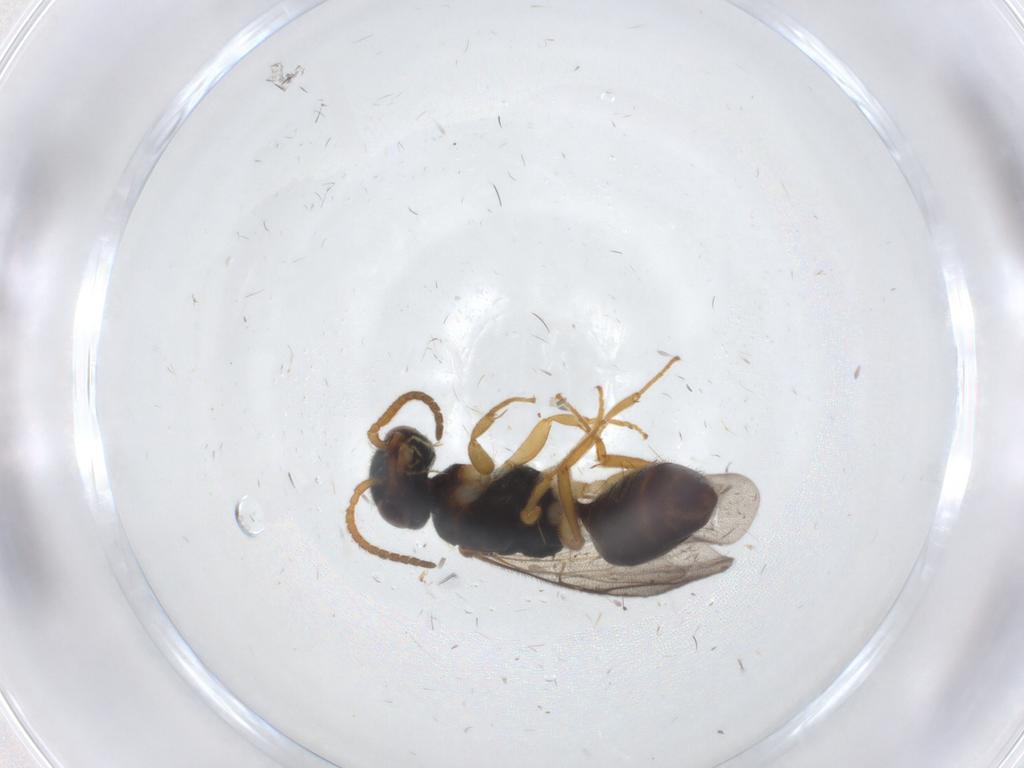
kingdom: Animalia
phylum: Arthropoda
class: Insecta
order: Hymenoptera
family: Bethylidae
